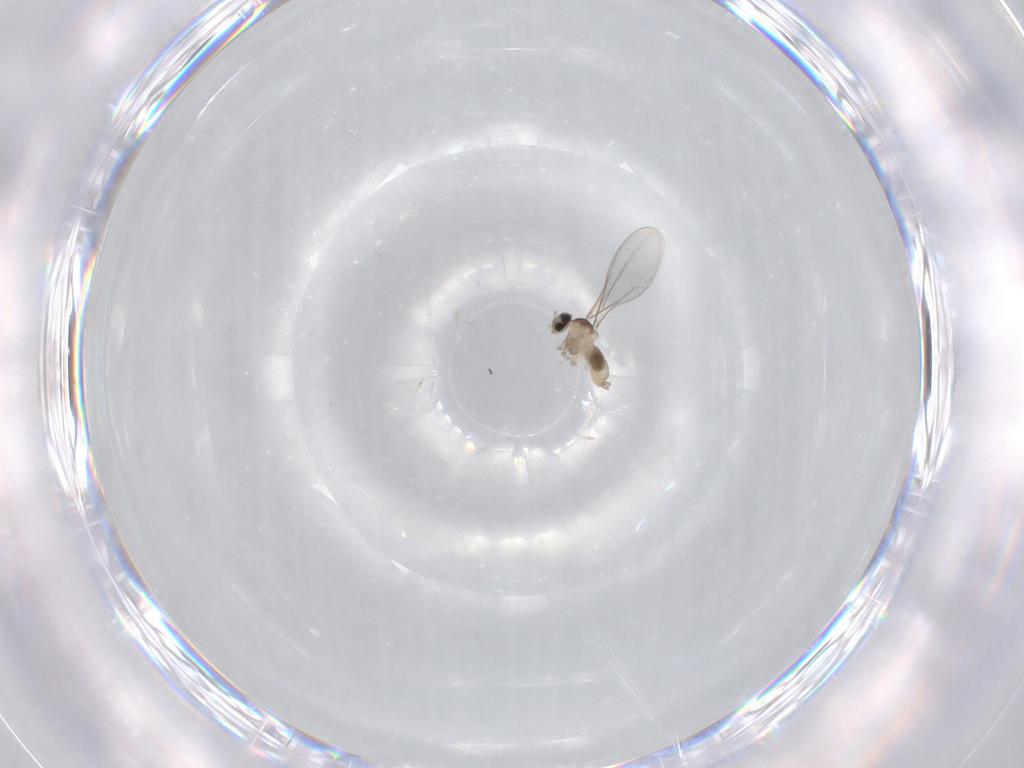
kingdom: Animalia
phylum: Arthropoda
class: Insecta
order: Diptera
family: Cecidomyiidae
